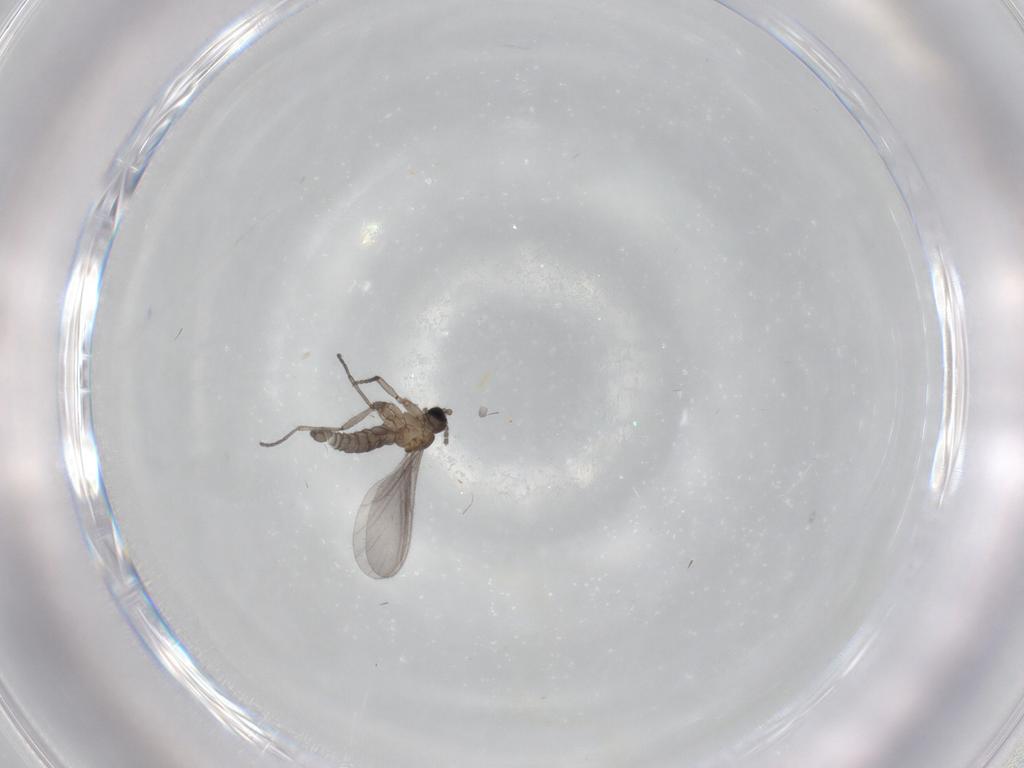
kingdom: Animalia
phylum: Arthropoda
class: Insecta
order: Diptera
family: Sciaridae
